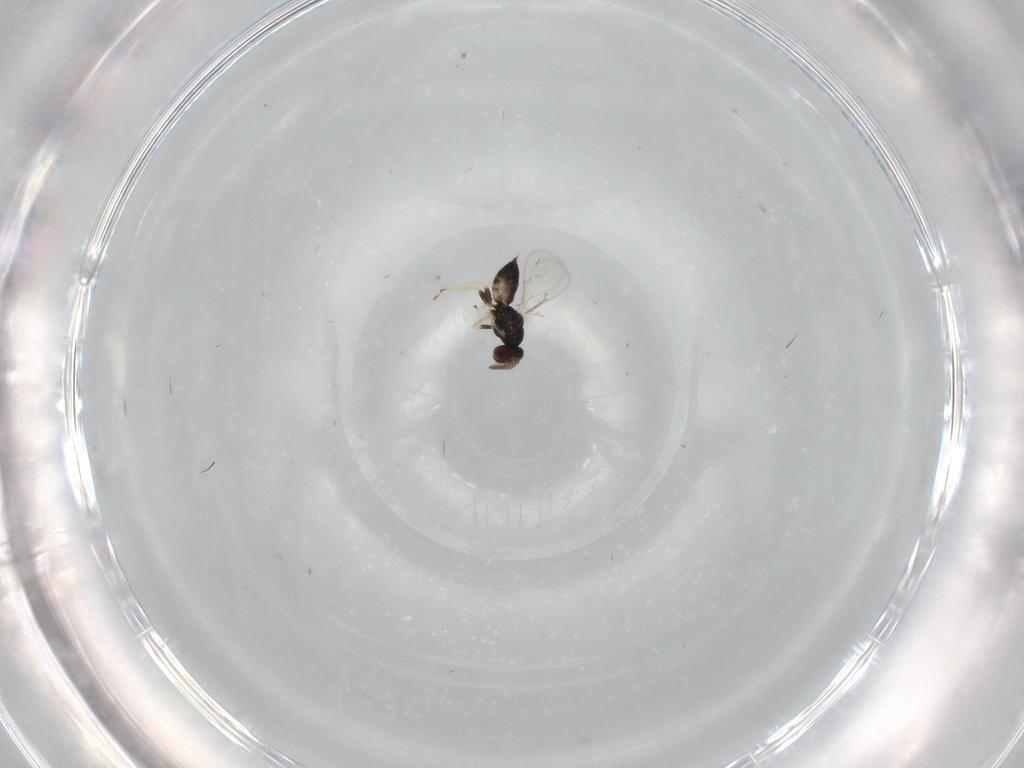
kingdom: Animalia
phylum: Arthropoda
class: Insecta
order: Hymenoptera
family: Eulophidae
